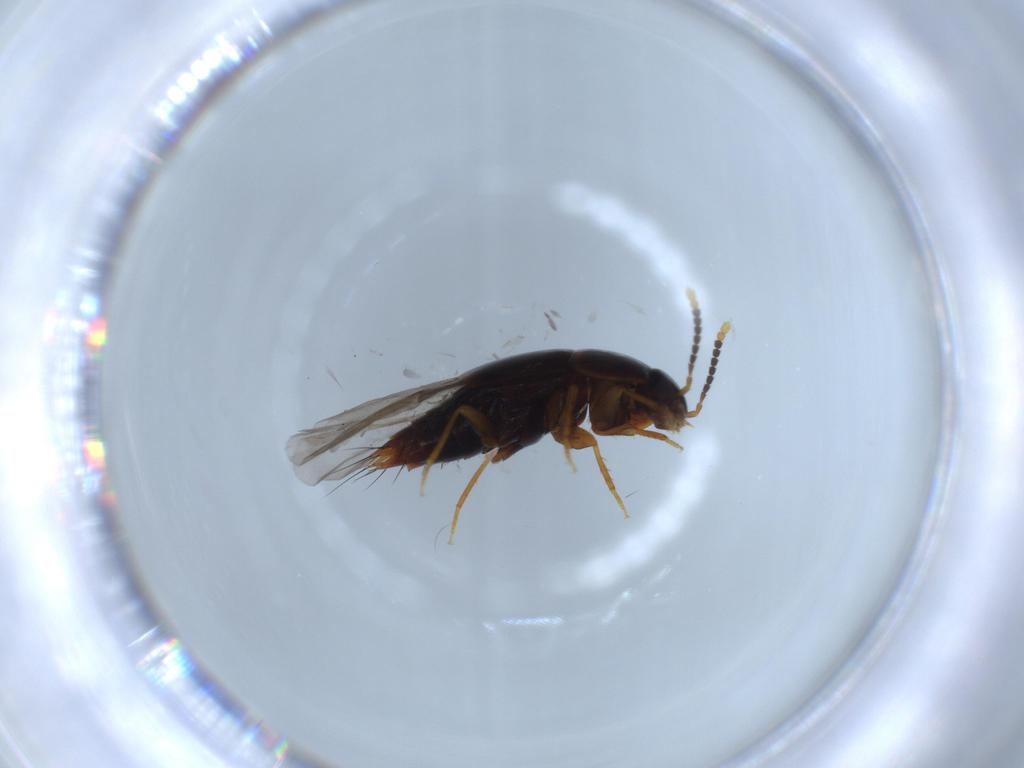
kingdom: Animalia
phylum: Arthropoda
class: Insecta
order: Coleoptera
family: Staphylinidae
